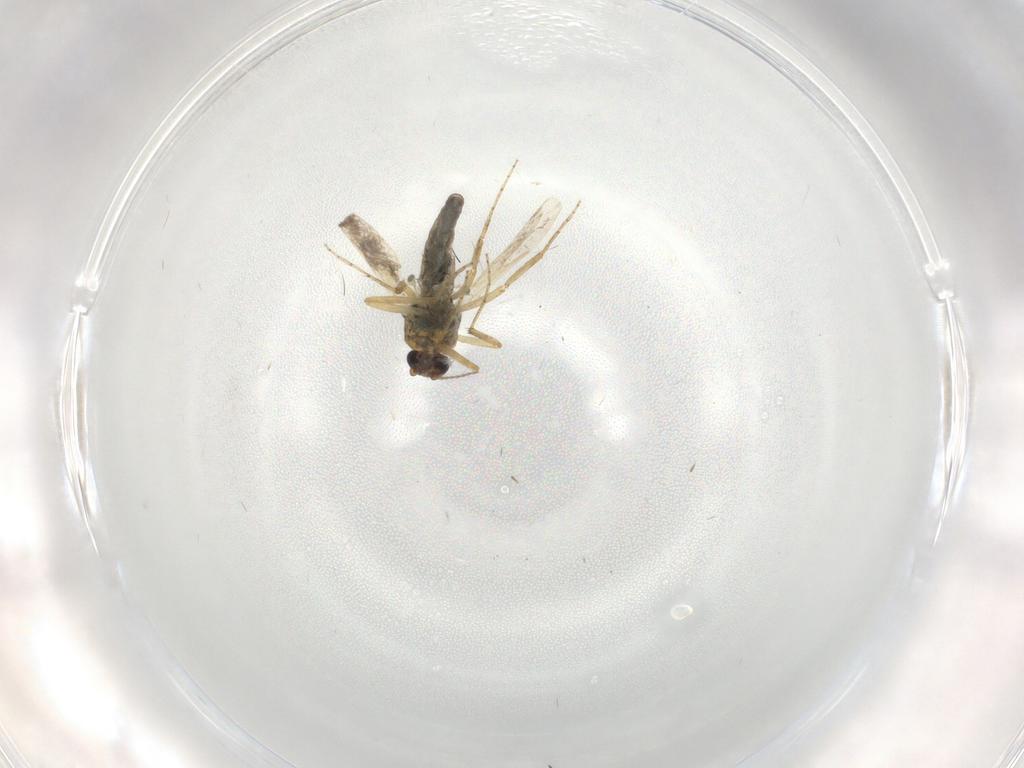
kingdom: Animalia
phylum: Arthropoda
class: Insecta
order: Diptera
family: Ceratopogonidae
